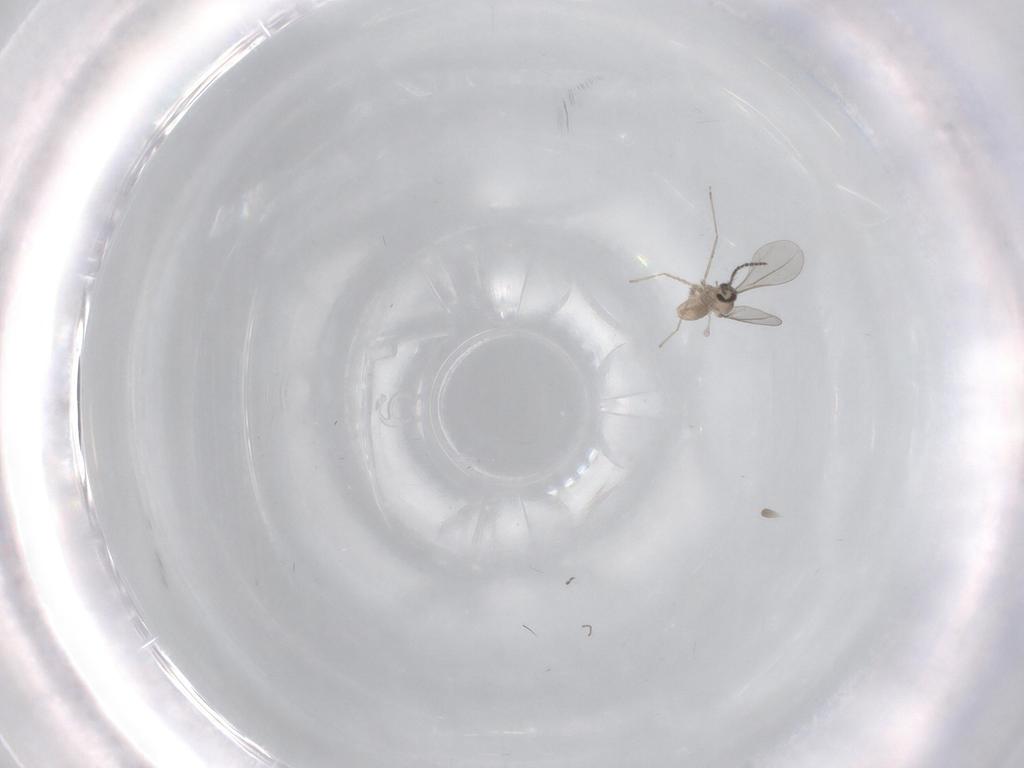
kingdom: Animalia
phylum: Arthropoda
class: Insecta
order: Diptera
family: Cecidomyiidae
